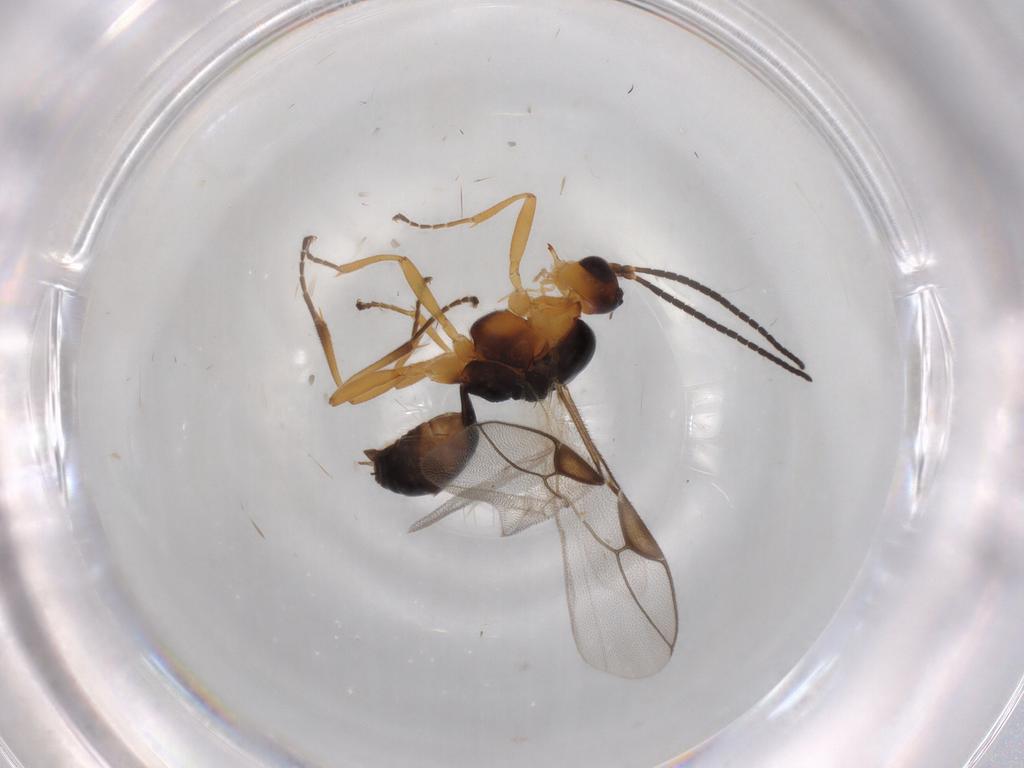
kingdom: Animalia
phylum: Arthropoda
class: Insecta
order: Hymenoptera
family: Braconidae
